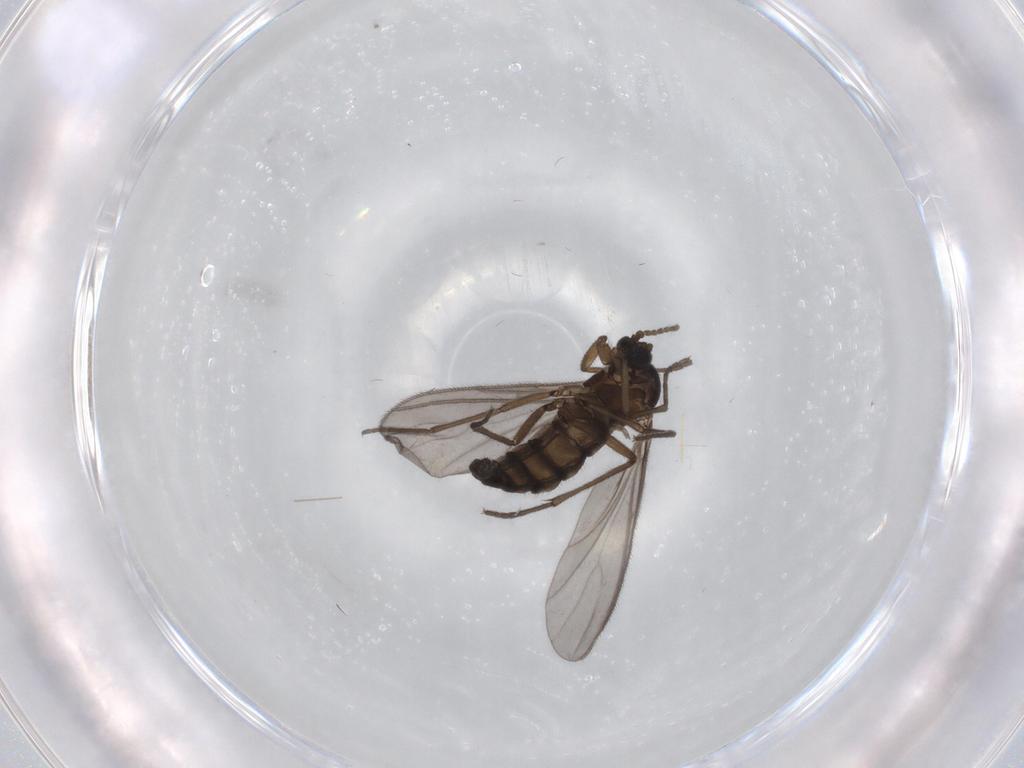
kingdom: Animalia
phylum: Arthropoda
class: Insecta
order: Diptera
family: Sciaridae
